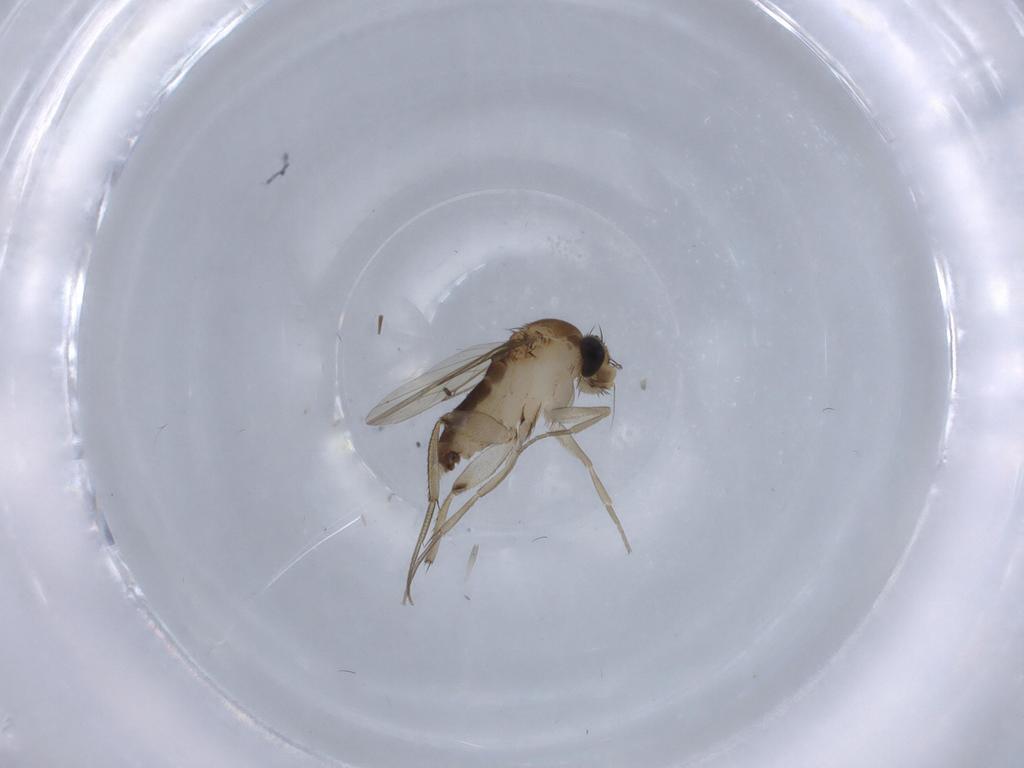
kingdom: Animalia
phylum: Arthropoda
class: Insecta
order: Diptera
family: Phoridae
